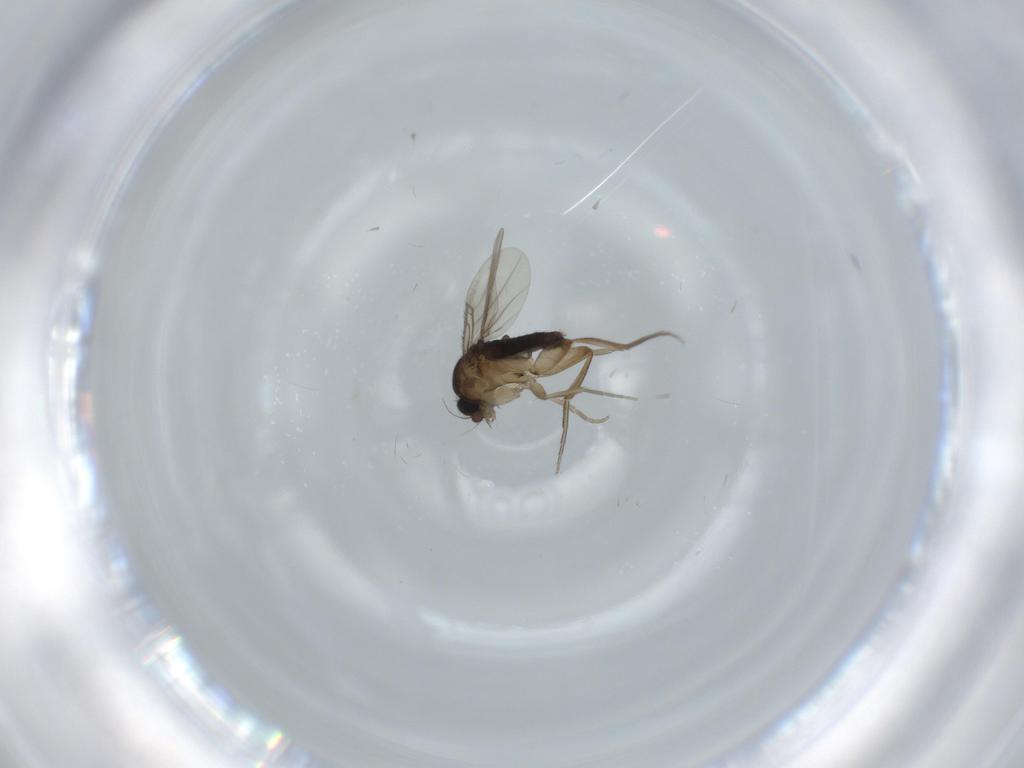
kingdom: Animalia
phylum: Arthropoda
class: Insecta
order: Diptera
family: Phoridae
